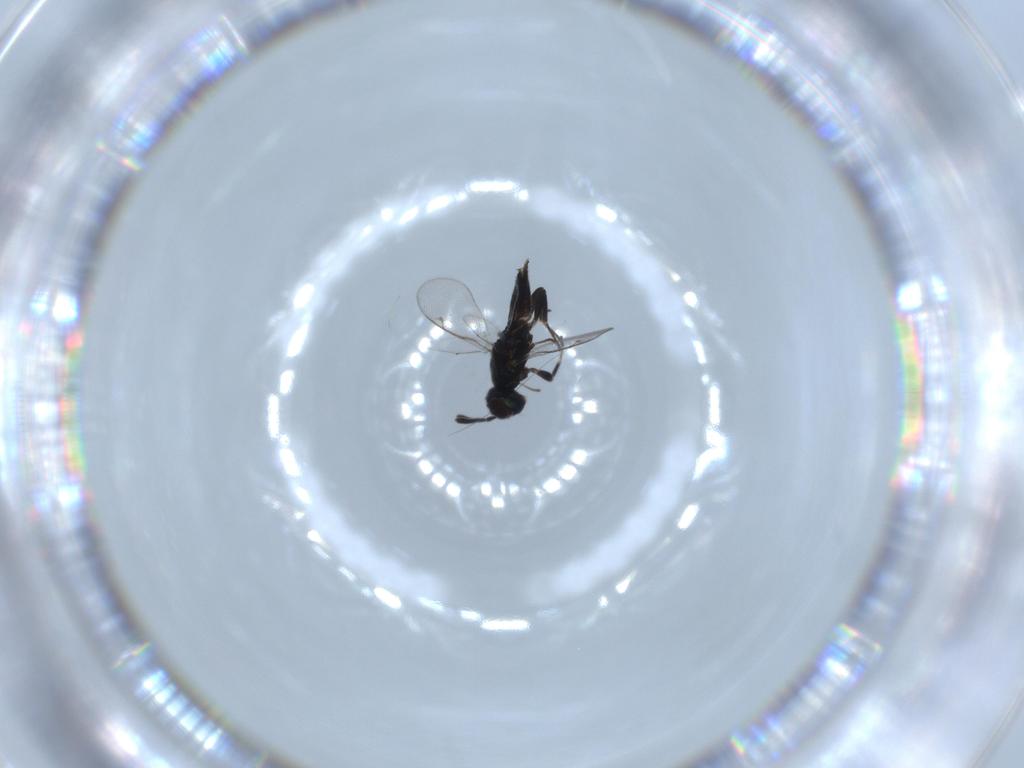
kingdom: Animalia
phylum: Arthropoda
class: Insecta
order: Hymenoptera
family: Eupelmidae
